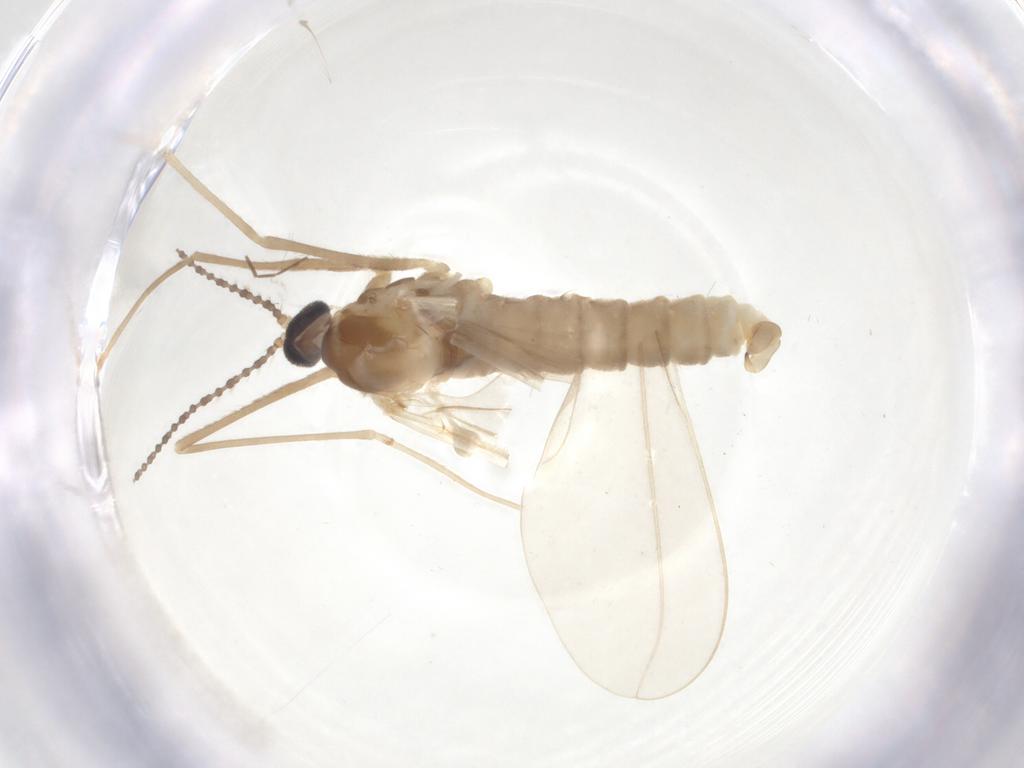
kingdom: Animalia
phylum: Arthropoda
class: Insecta
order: Diptera
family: Cecidomyiidae
